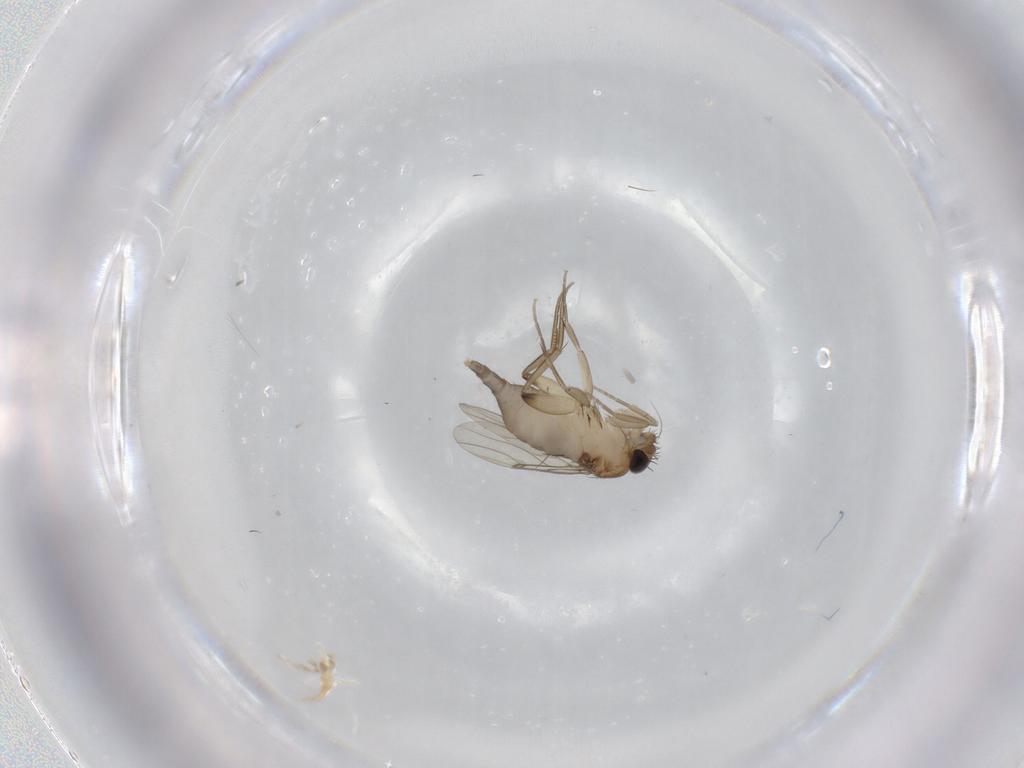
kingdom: Animalia
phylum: Arthropoda
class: Insecta
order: Diptera
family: Phoridae
